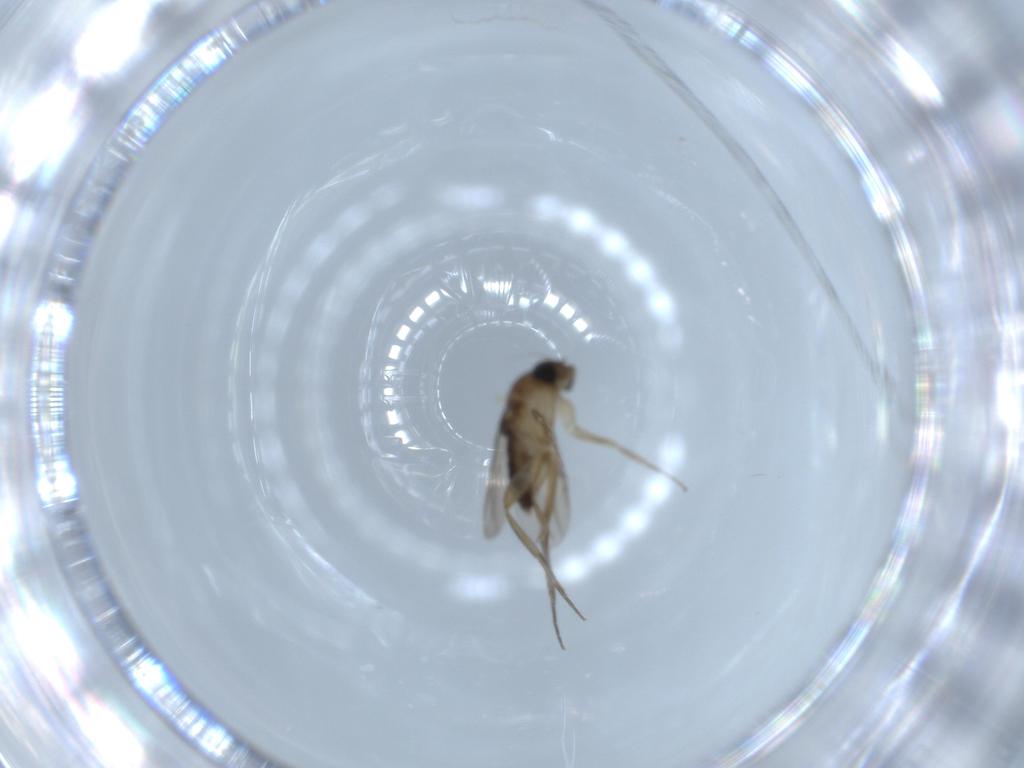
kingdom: Animalia
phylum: Arthropoda
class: Insecta
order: Diptera
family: Phoridae
